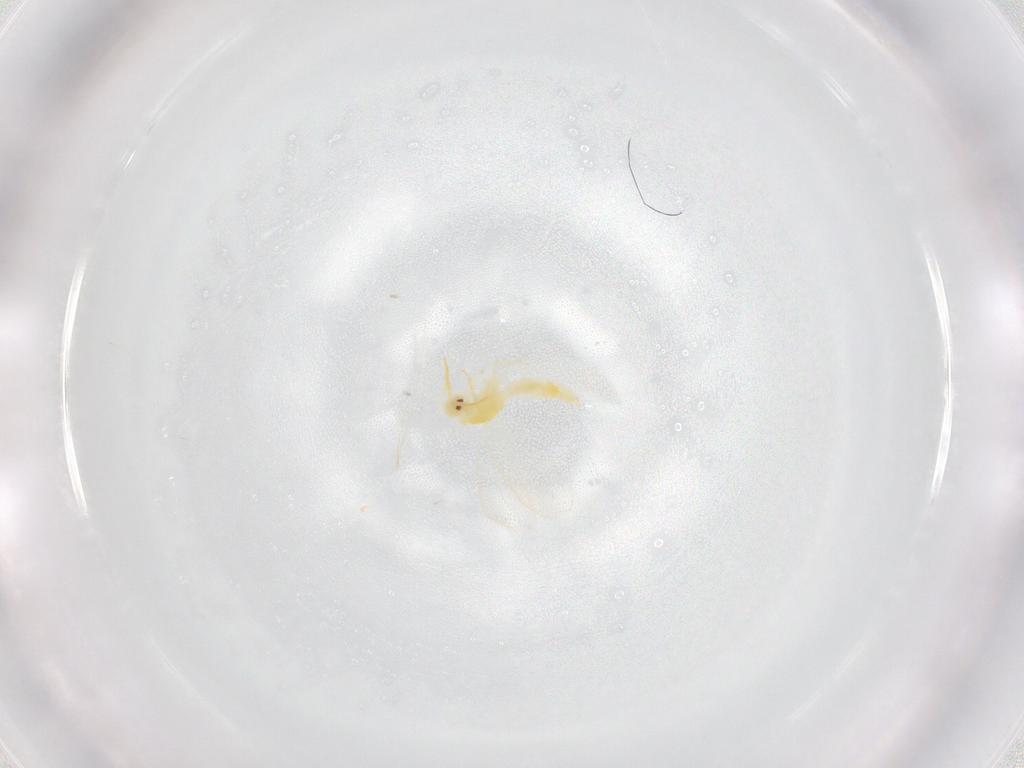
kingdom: Animalia
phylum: Arthropoda
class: Insecta
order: Hemiptera
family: Aleyrodidae
